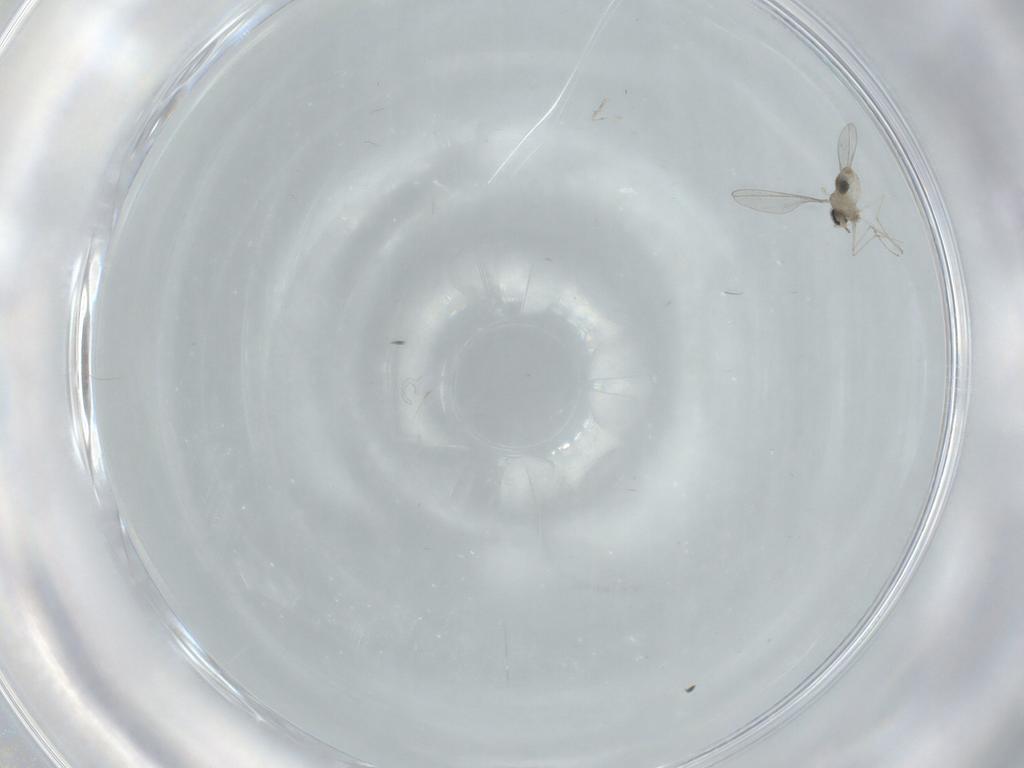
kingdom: Animalia
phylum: Arthropoda
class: Insecta
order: Diptera
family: Cecidomyiidae
